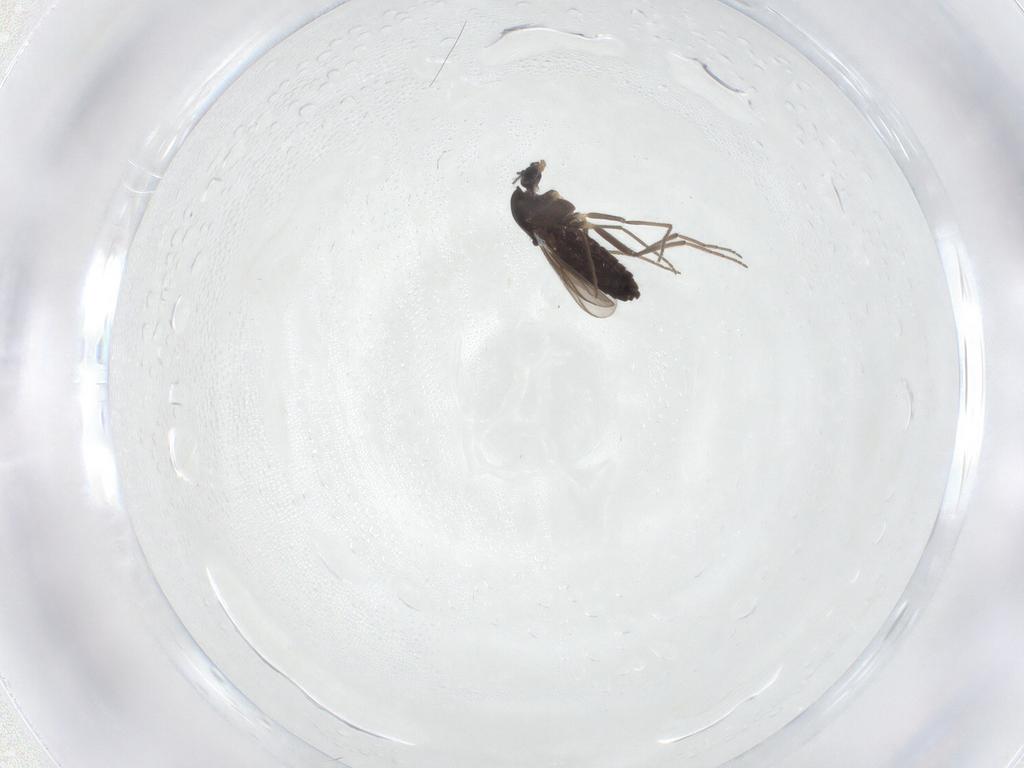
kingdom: Animalia
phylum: Arthropoda
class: Insecta
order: Diptera
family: Chironomidae
